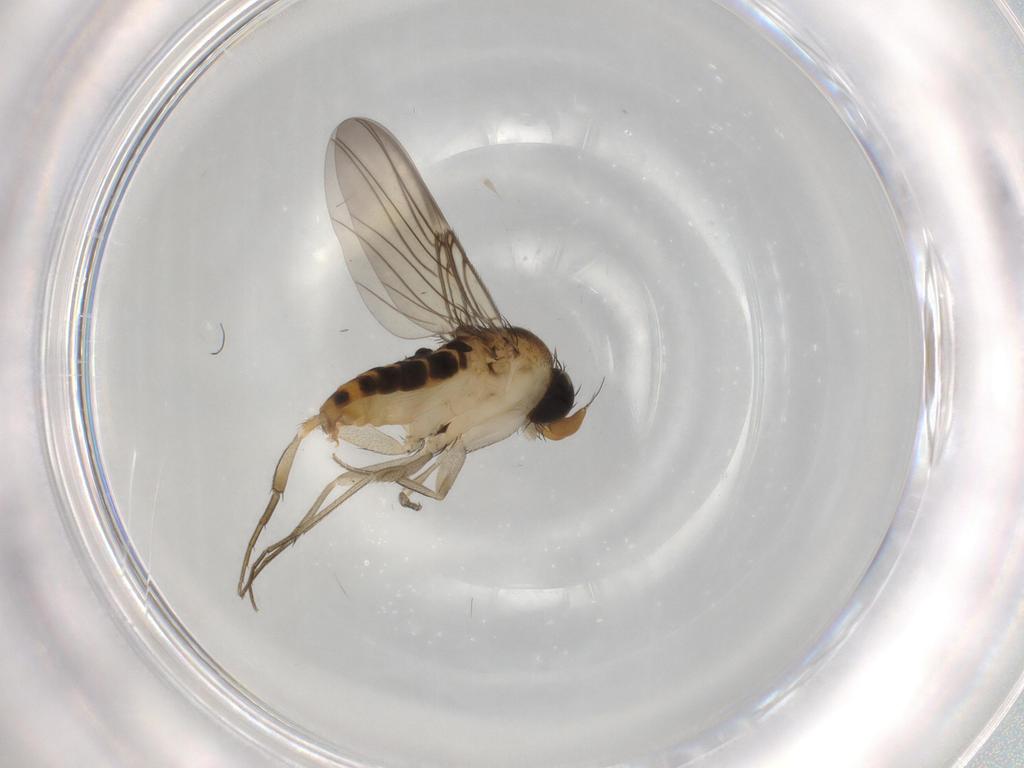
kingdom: Animalia
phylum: Arthropoda
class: Insecta
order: Diptera
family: Phoridae
